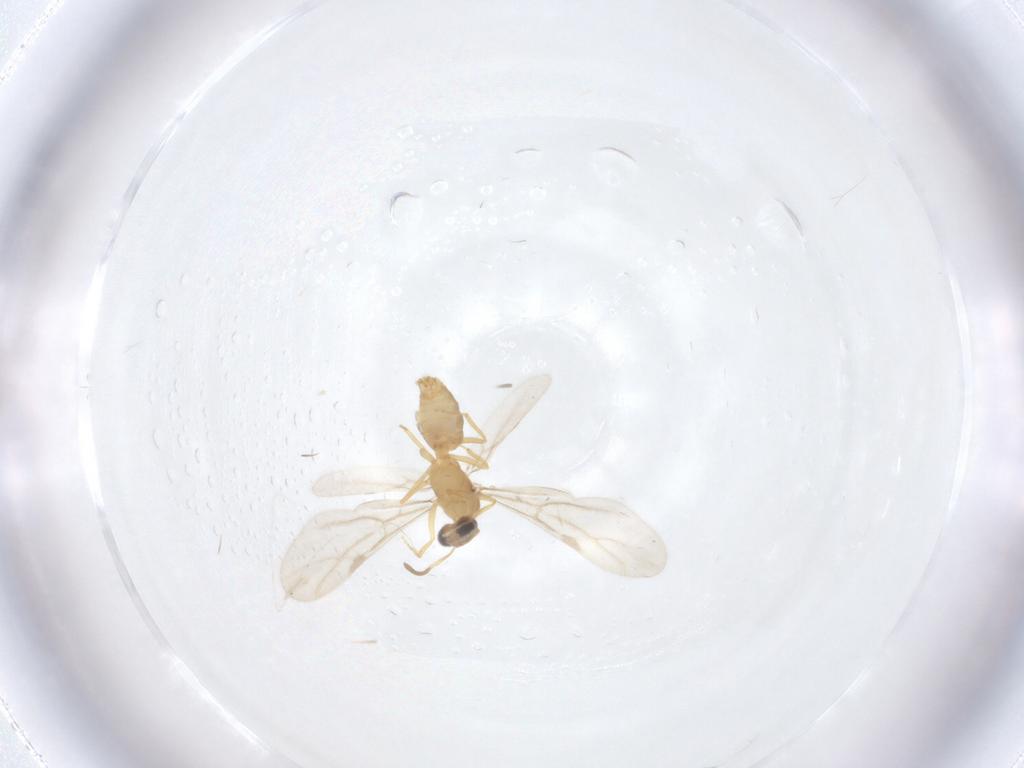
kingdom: Animalia
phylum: Arthropoda
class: Insecta
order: Hymenoptera
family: Formicidae
